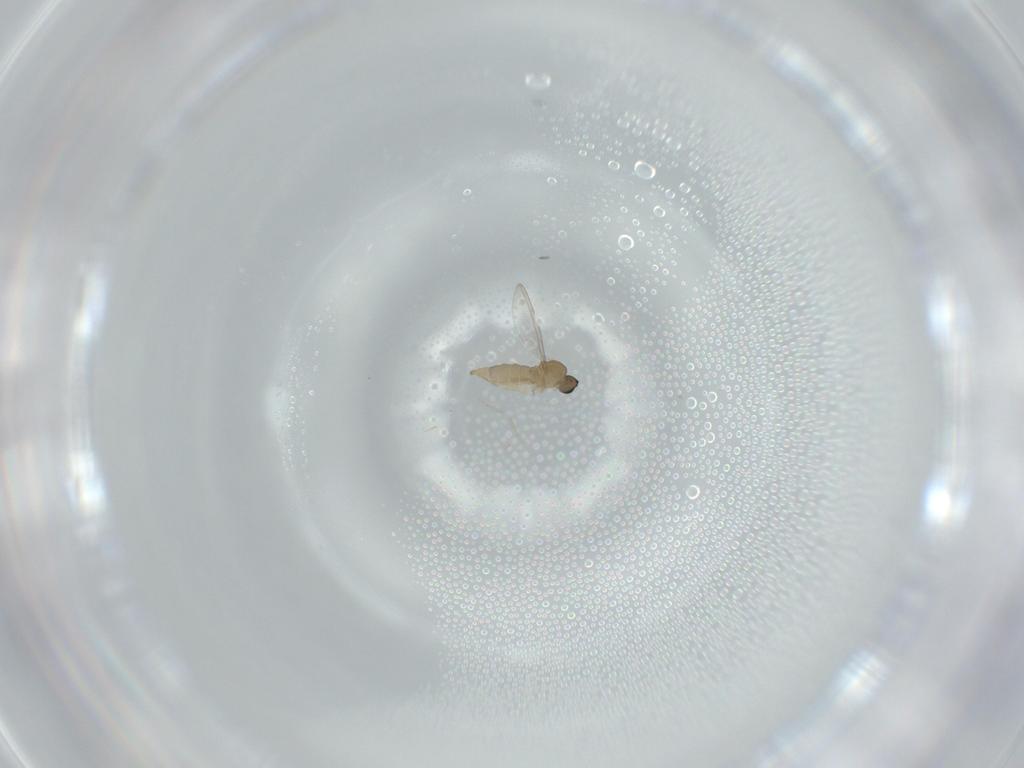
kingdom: Animalia
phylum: Arthropoda
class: Insecta
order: Diptera
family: Cecidomyiidae
